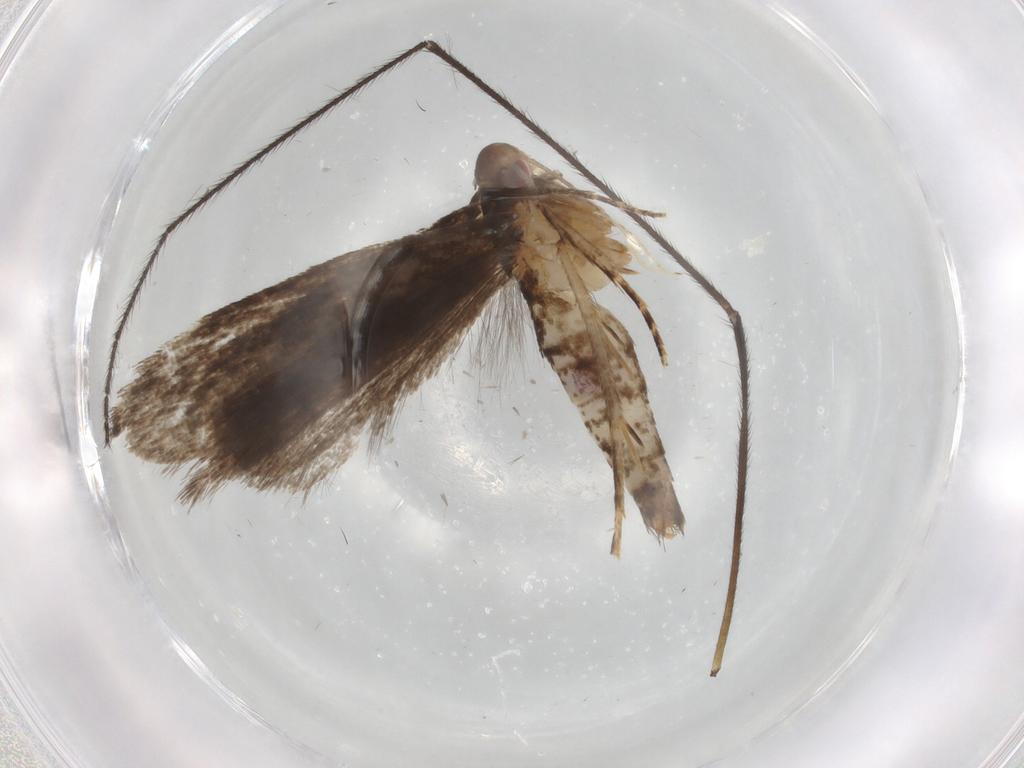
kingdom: Animalia
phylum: Arthropoda
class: Insecta
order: Lepidoptera
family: Gelechiidae
